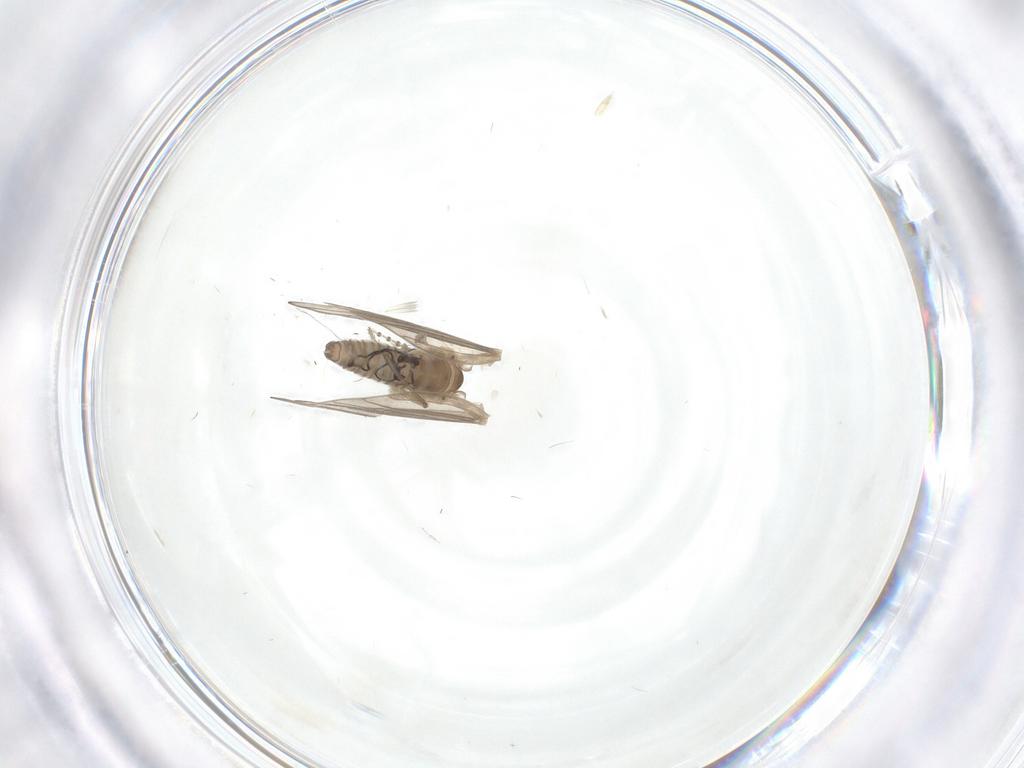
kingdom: Animalia
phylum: Arthropoda
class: Insecta
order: Diptera
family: Psychodidae
